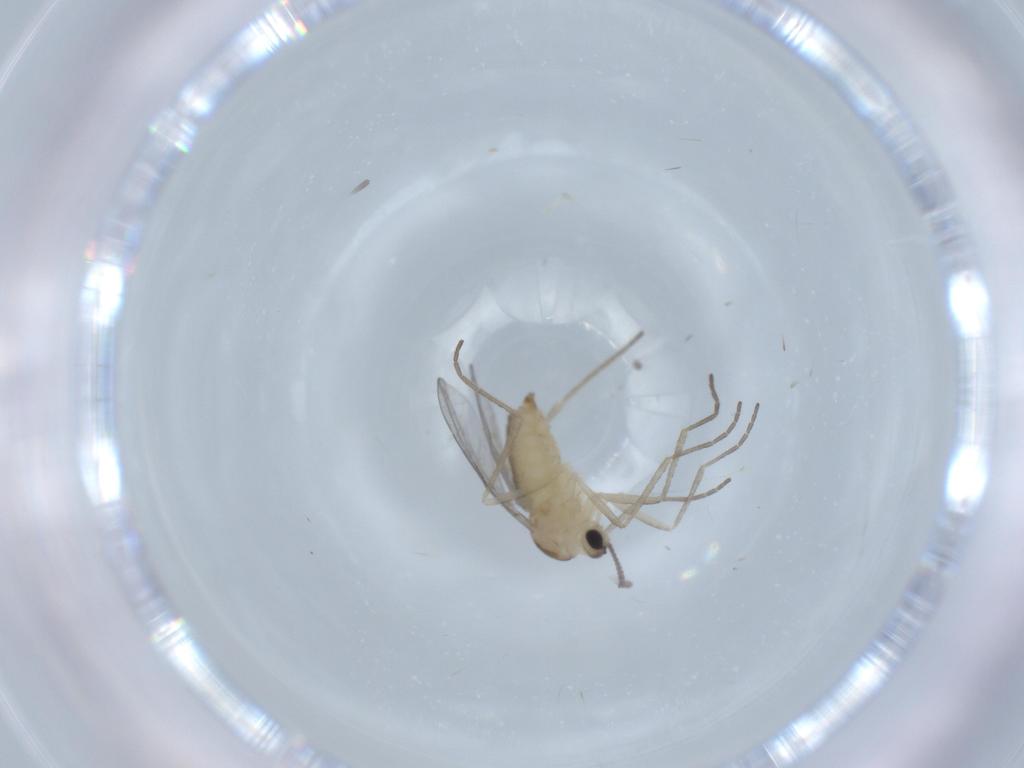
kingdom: Animalia
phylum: Arthropoda
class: Insecta
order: Diptera
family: Cecidomyiidae
